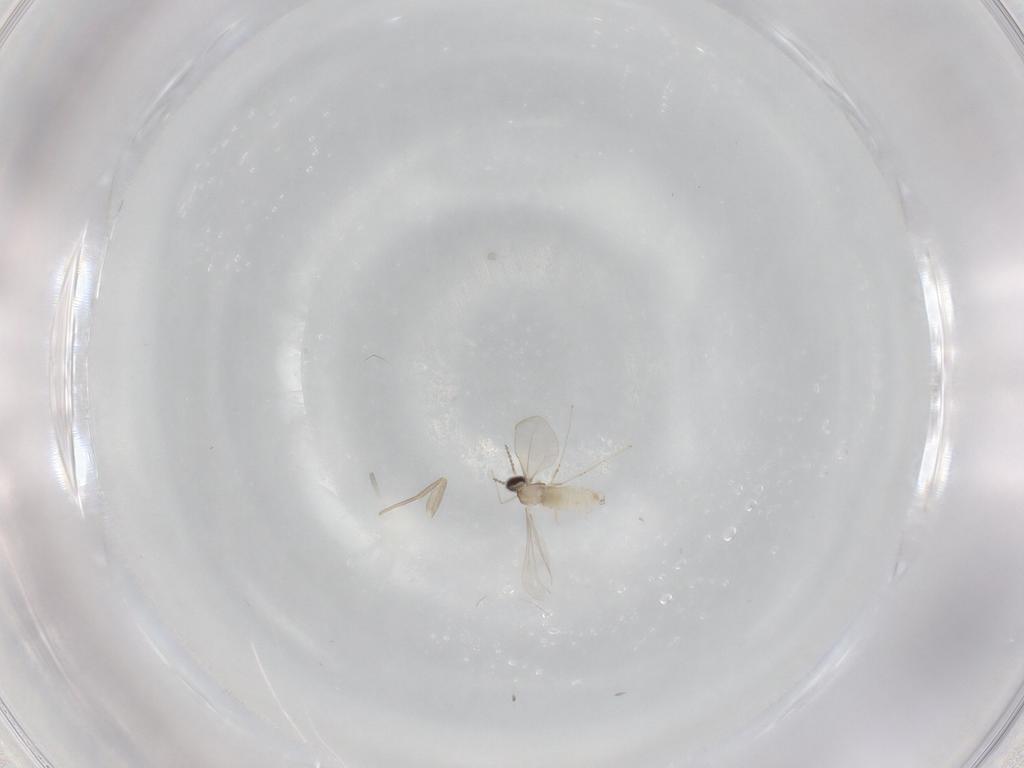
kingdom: Animalia
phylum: Arthropoda
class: Insecta
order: Diptera
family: Phoridae
